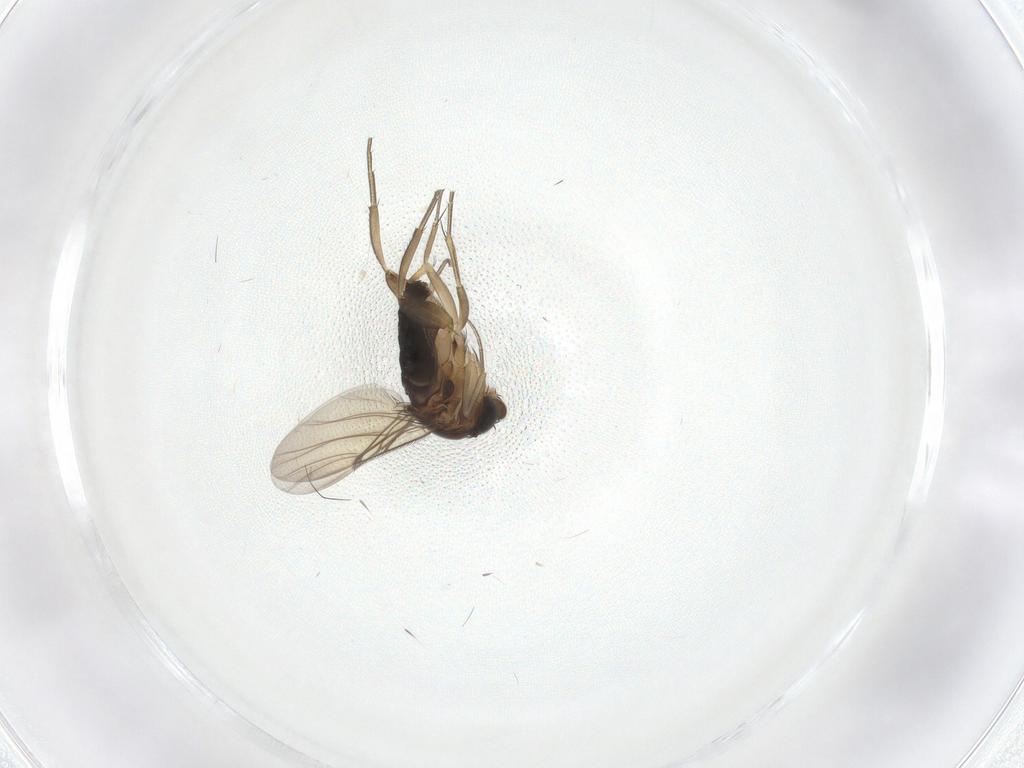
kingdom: Animalia
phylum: Arthropoda
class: Insecta
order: Diptera
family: Phoridae
